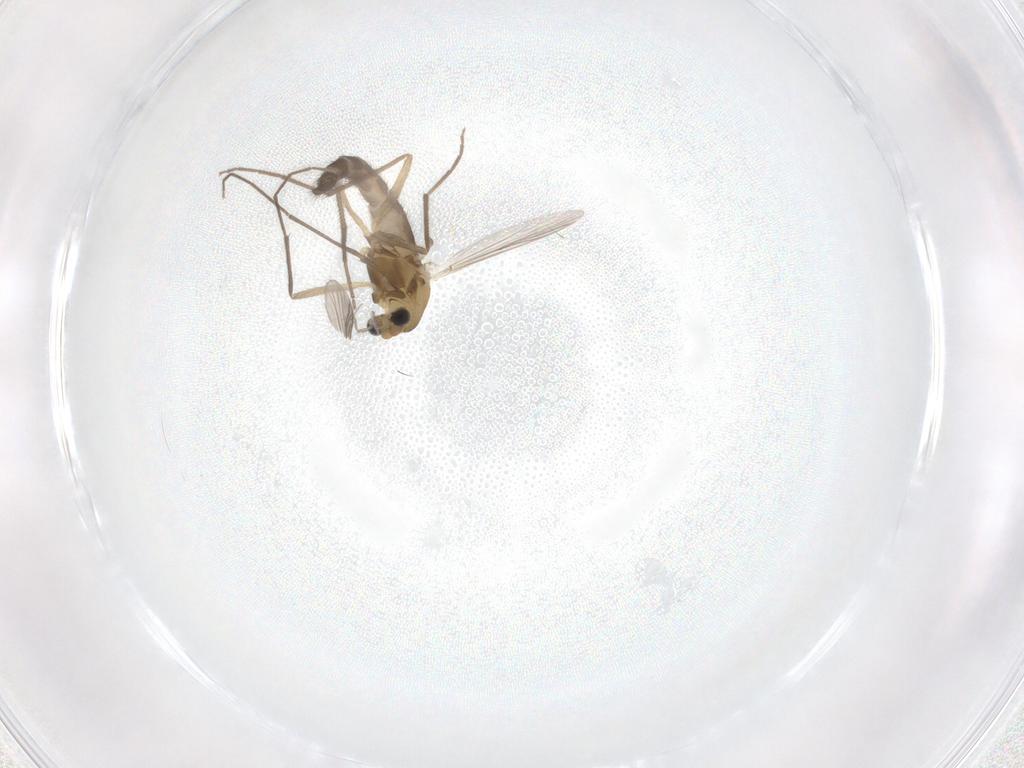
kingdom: Animalia
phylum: Arthropoda
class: Insecta
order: Diptera
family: Chironomidae
